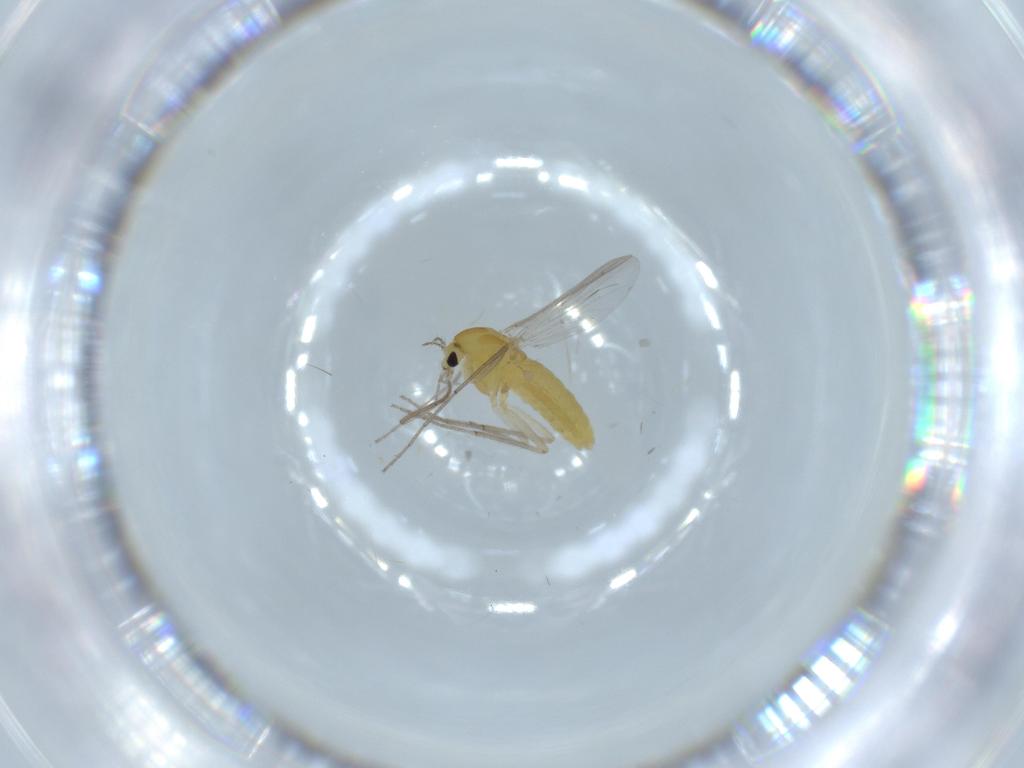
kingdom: Animalia
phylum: Arthropoda
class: Insecta
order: Diptera
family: Chironomidae
